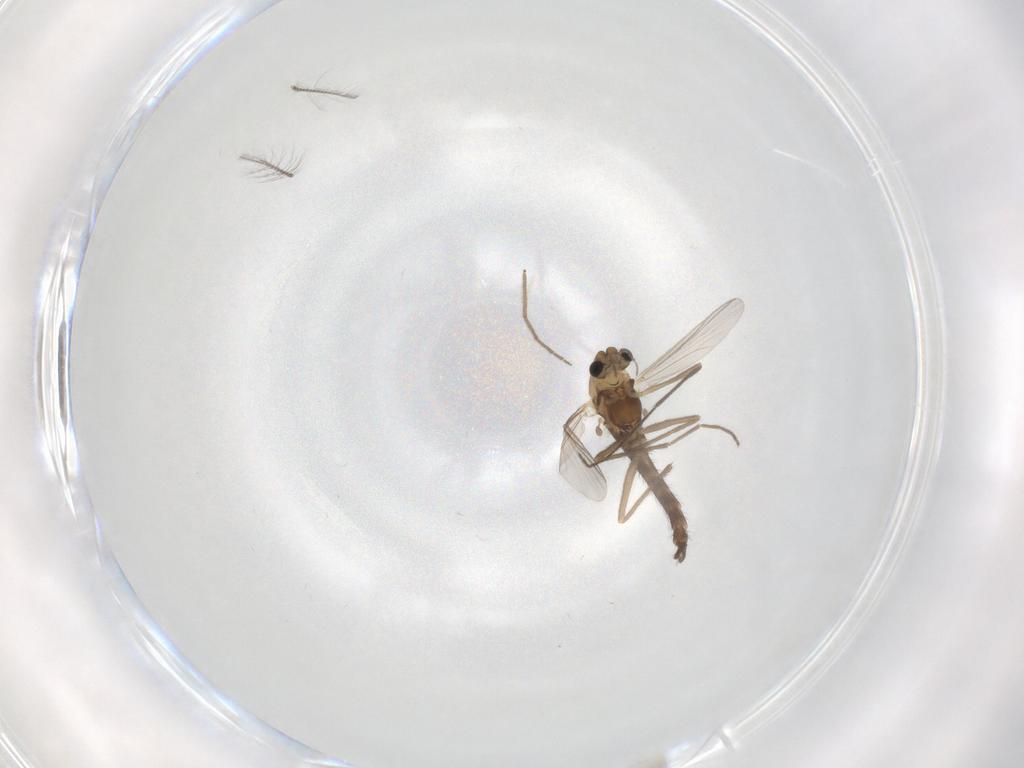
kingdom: Animalia
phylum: Arthropoda
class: Insecta
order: Diptera
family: Chironomidae
